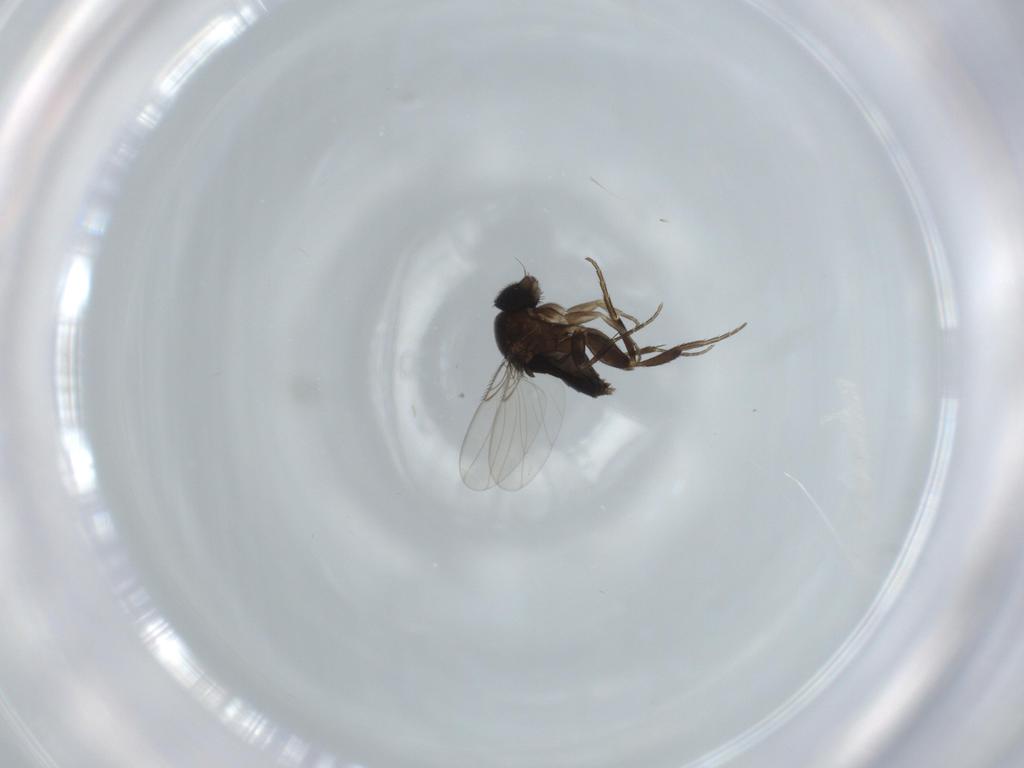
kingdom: Animalia
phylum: Arthropoda
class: Insecta
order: Diptera
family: Phoridae
